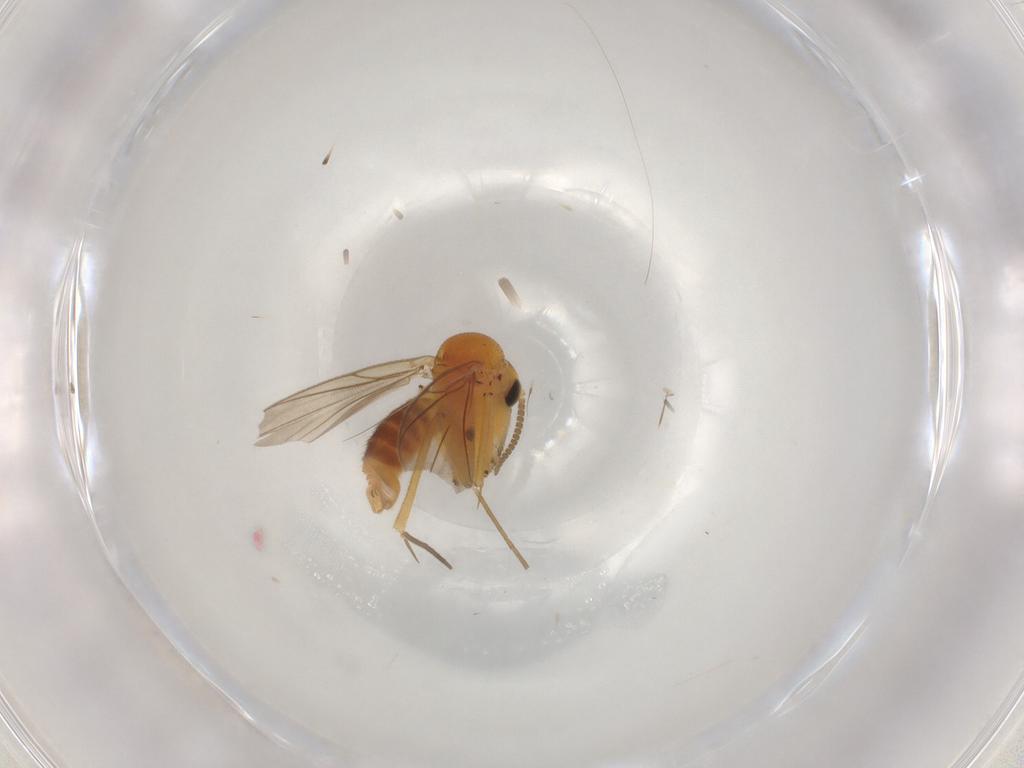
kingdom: Animalia
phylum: Arthropoda
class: Insecta
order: Diptera
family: Mycetophilidae
